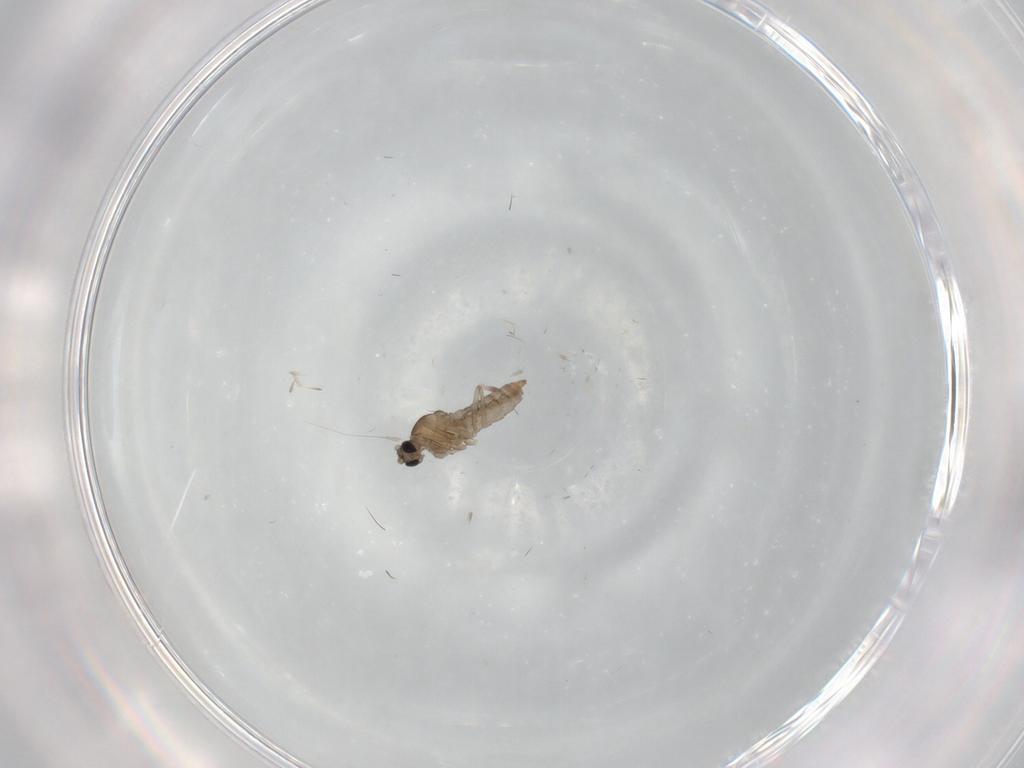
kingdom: Animalia
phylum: Arthropoda
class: Insecta
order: Diptera
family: Cecidomyiidae
